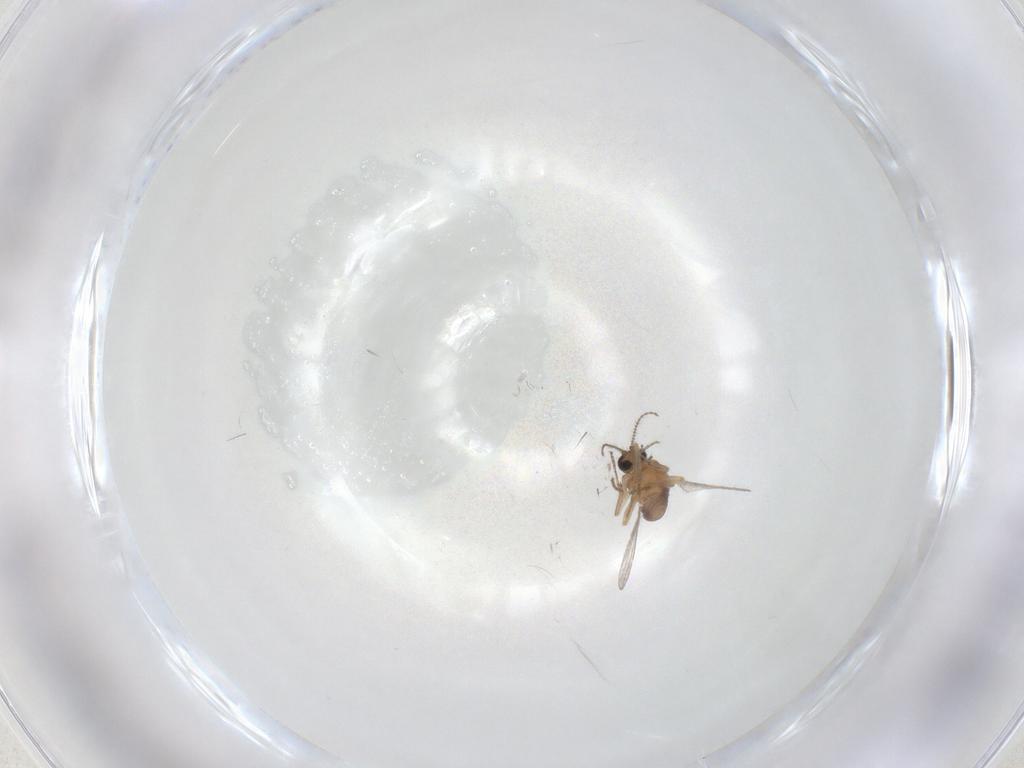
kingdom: Animalia
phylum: Arthropoda
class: Insecta
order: Diptera
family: Ceratopogonidae
